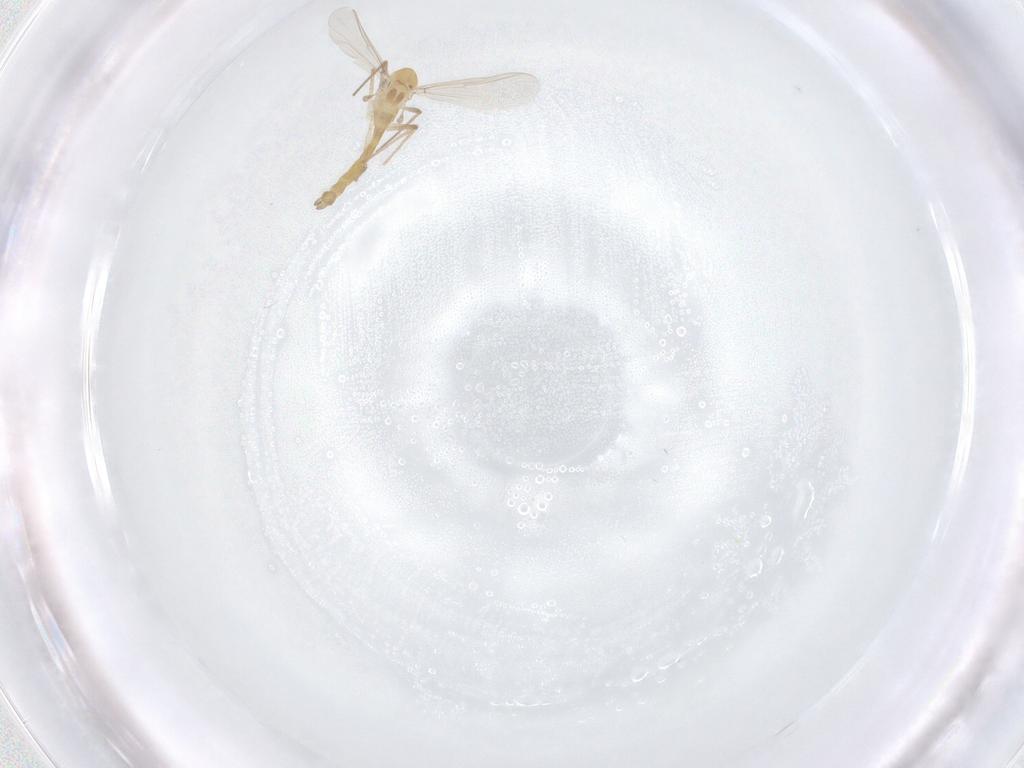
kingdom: Animalia
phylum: Arthropoda
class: Insecta
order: Diptera
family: Chironomidae
